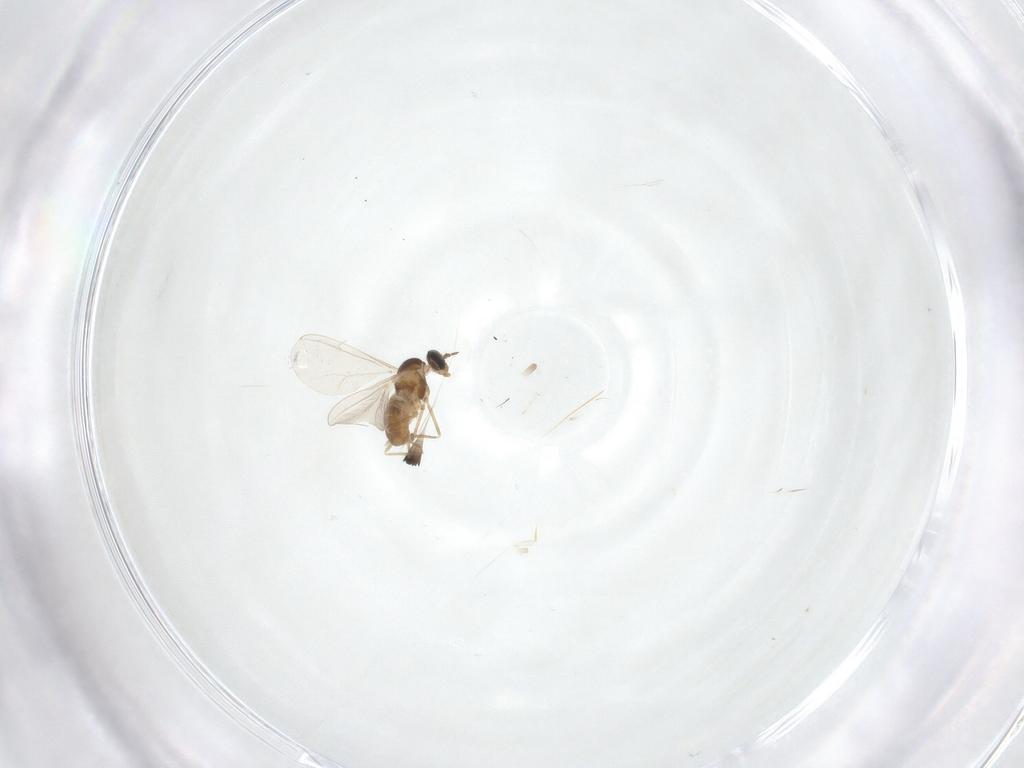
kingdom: Animalia
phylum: Arthropoda
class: Insecta
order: Diptera
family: Cecidomyiidae
